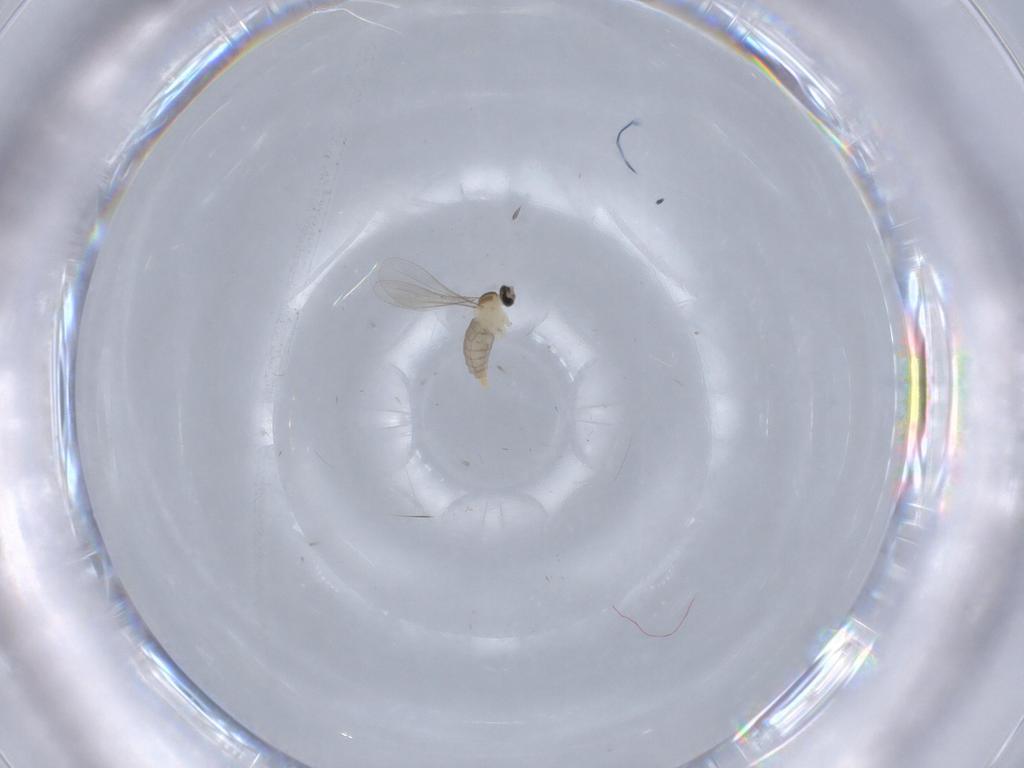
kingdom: Animalia
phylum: Arthropoda
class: Insecta
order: Diptera
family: Chironomidae
